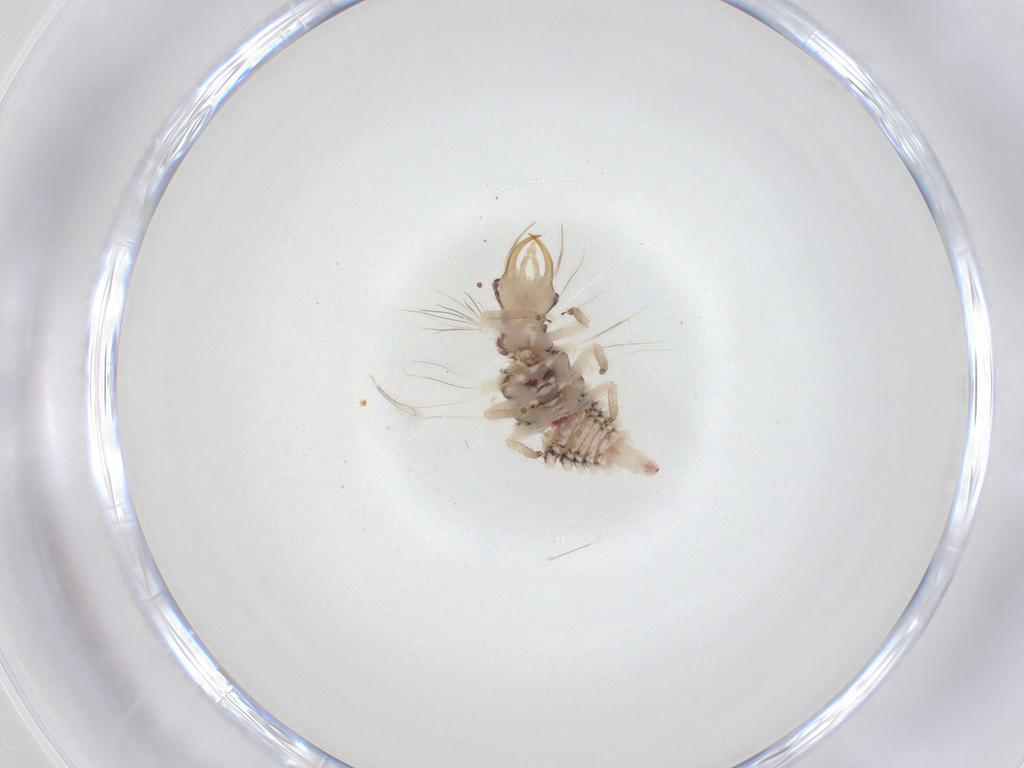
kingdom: Animalia
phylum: Arthropoda
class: Insecta
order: Neuroptera
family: Chrysopidae
